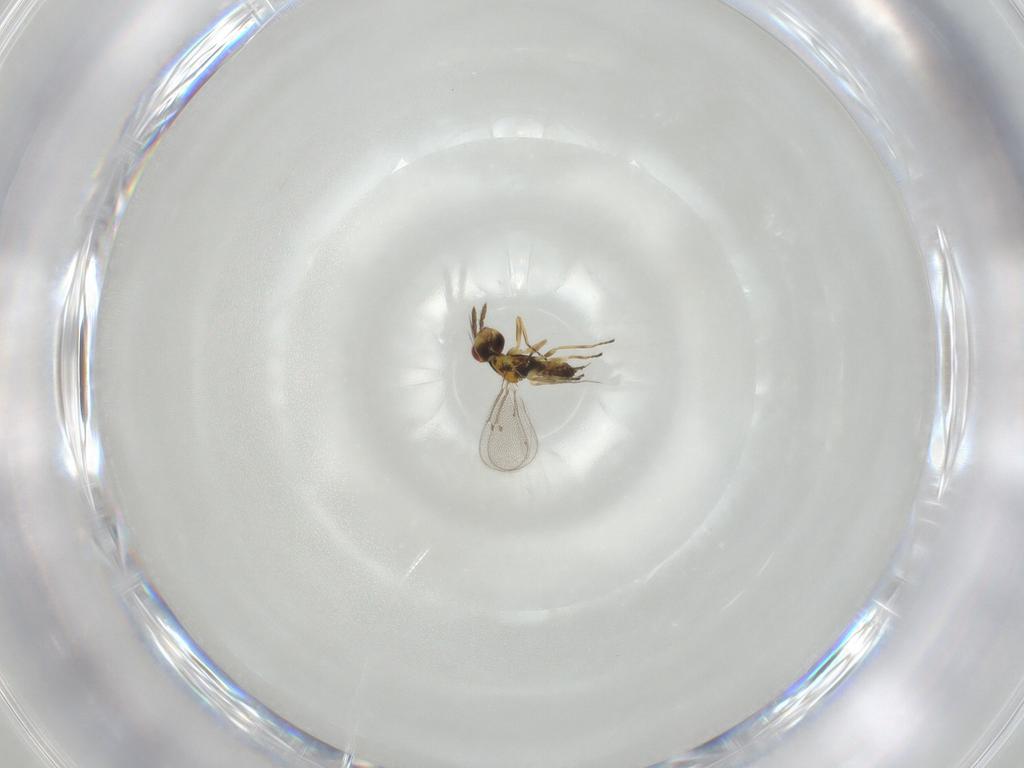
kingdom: Animalia
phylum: Arthropoda
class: Insecta
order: Hymenoptera
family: Eulophidae
